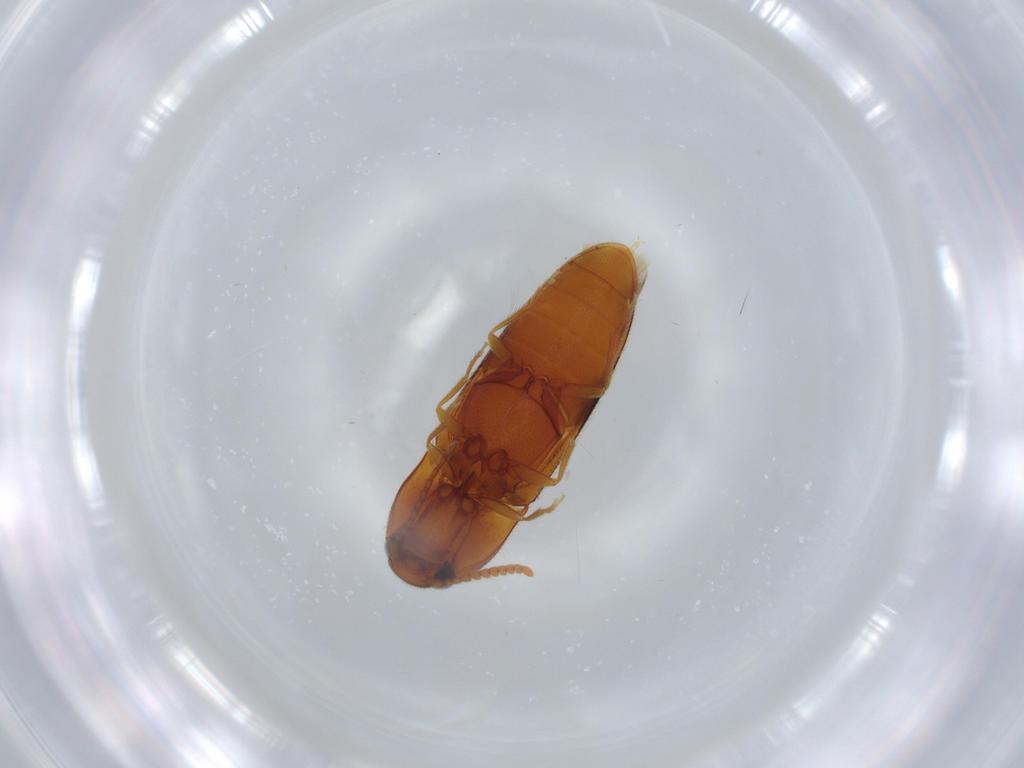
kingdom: Animalia
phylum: Arthropoda
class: Insecta
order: Coleoptera
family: Elateridae
